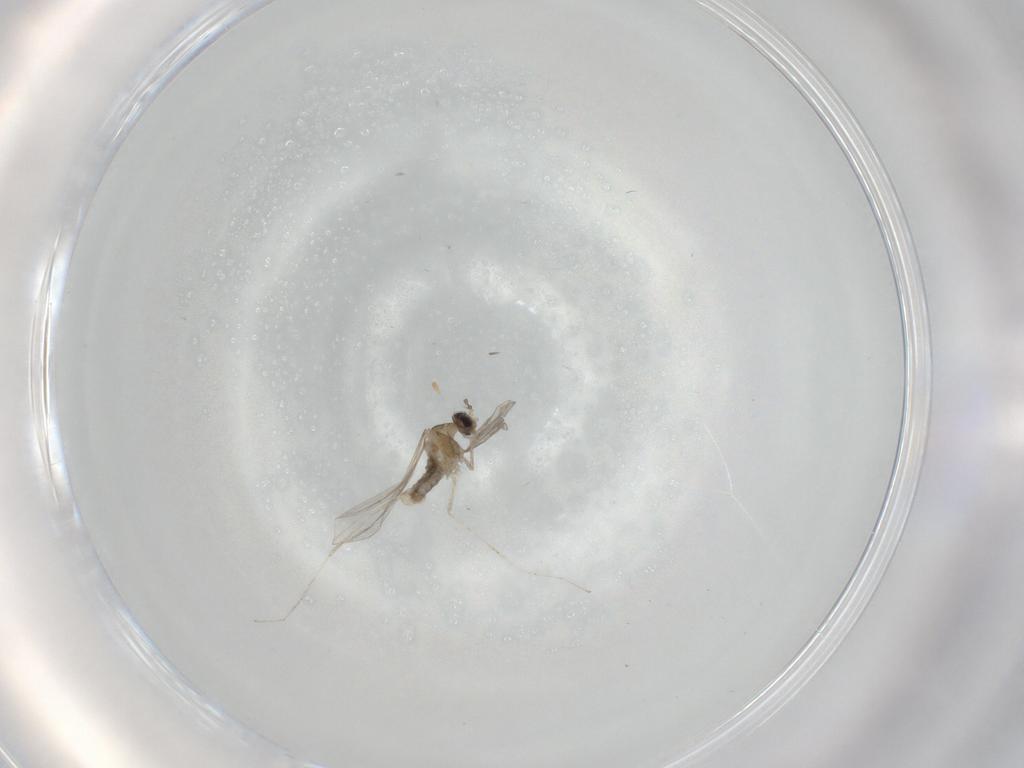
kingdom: Animalia
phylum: Arthropoda
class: Insecta
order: Diptera
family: Cecidomyiidae
